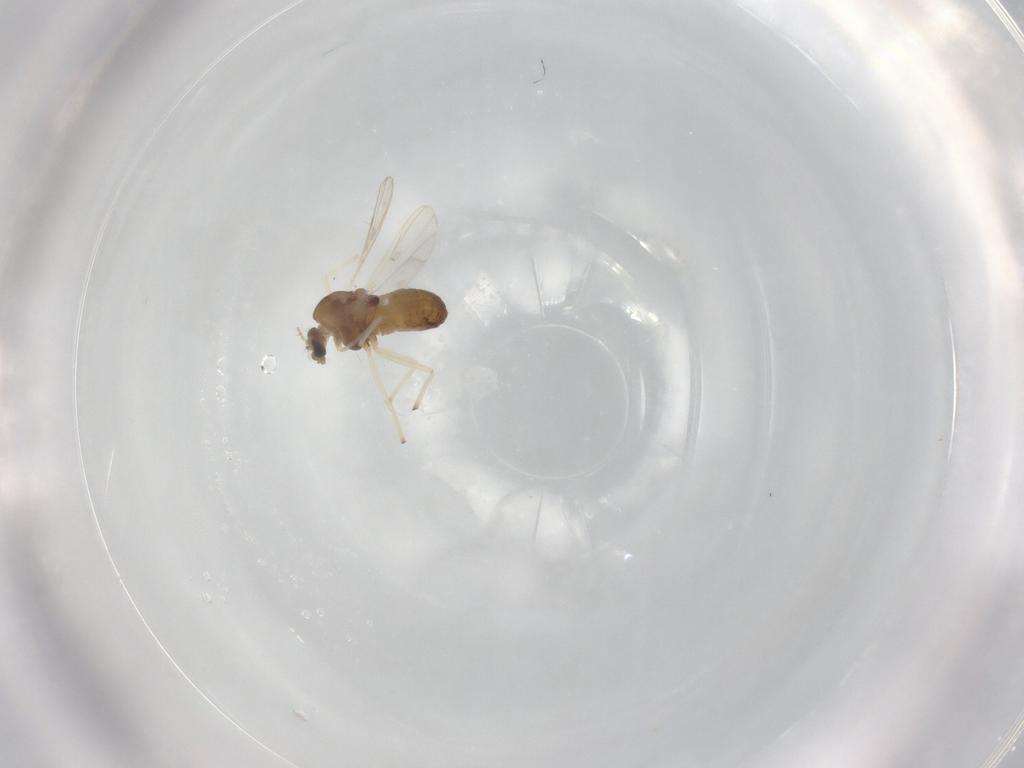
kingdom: Animalia
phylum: Arthropoda
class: Insecta
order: Diptera
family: Chironomidae
